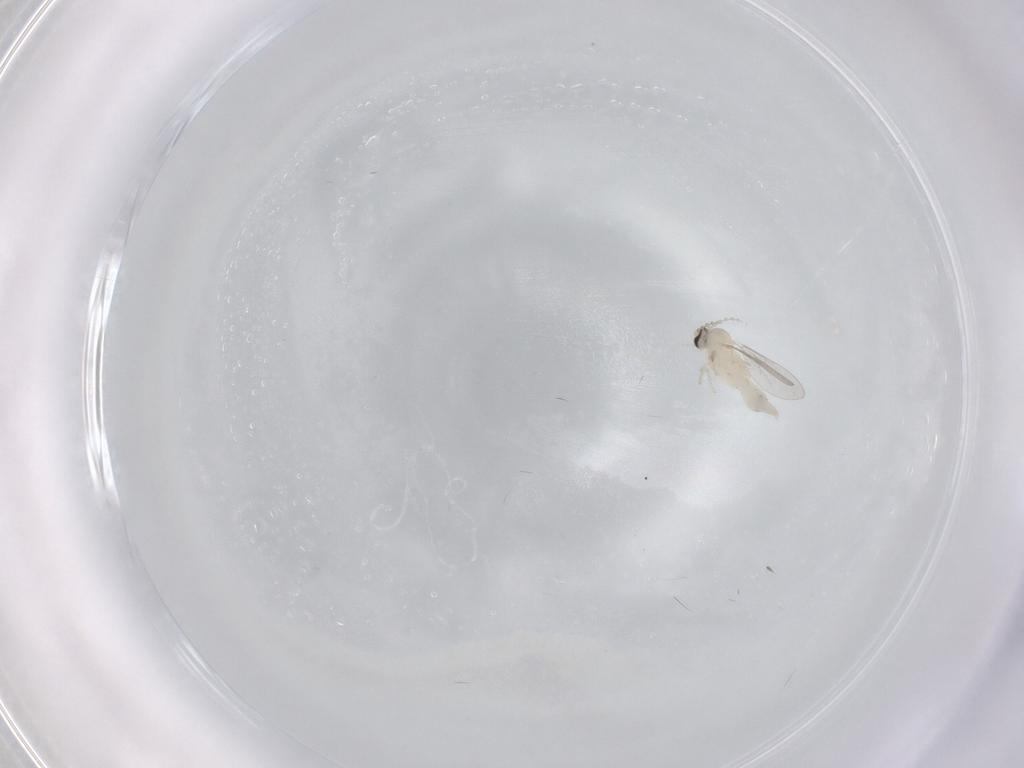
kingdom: Animalia
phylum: Arthropoda
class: Insecta
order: Diptera
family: Cecidomyiidae
